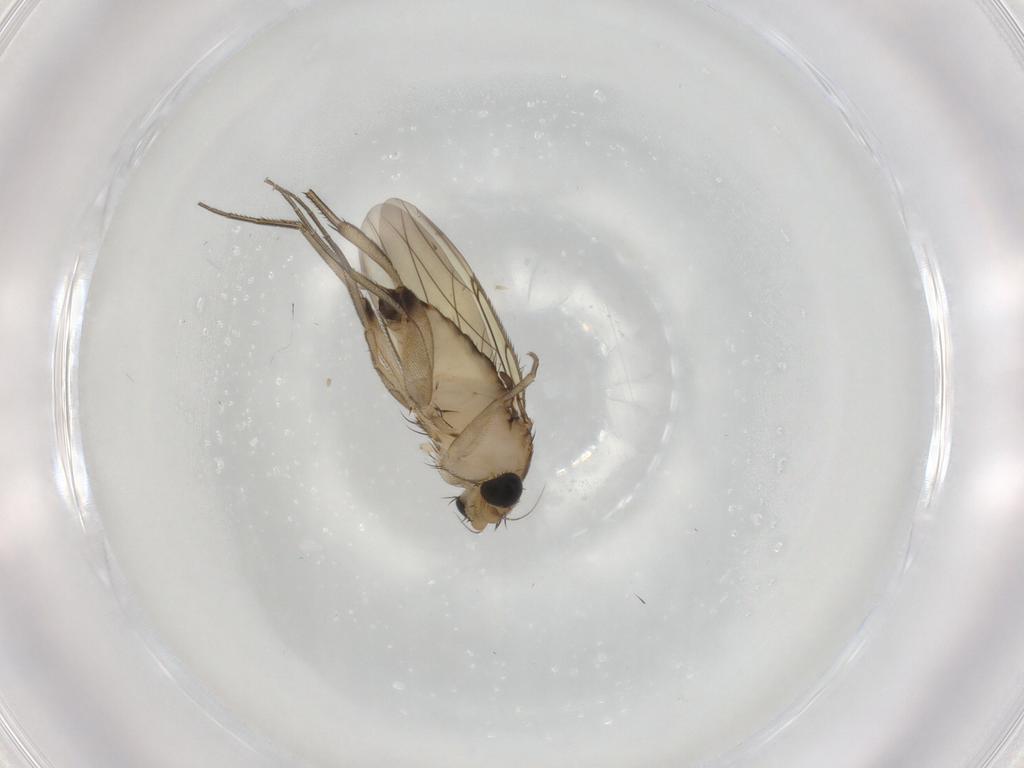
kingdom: Animalia
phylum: Arthropoda
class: Insecta
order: Diptera
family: Phoridae
